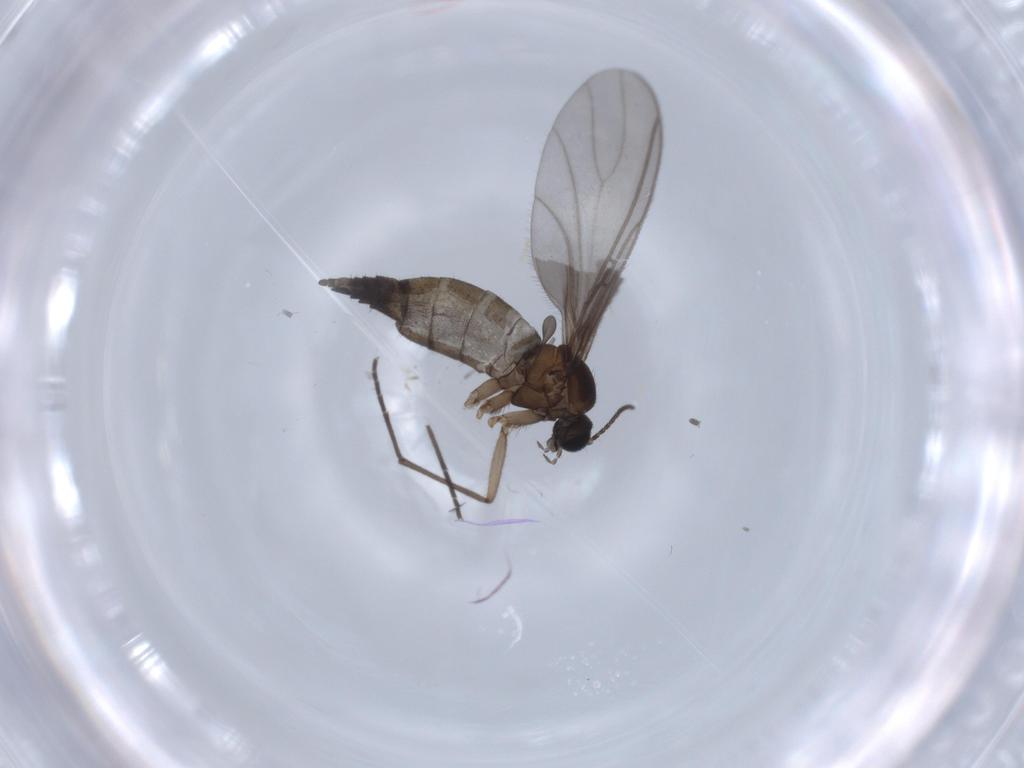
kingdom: Animalia
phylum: Arthropoda
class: Insecta
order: Diptera
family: Sciaridae
